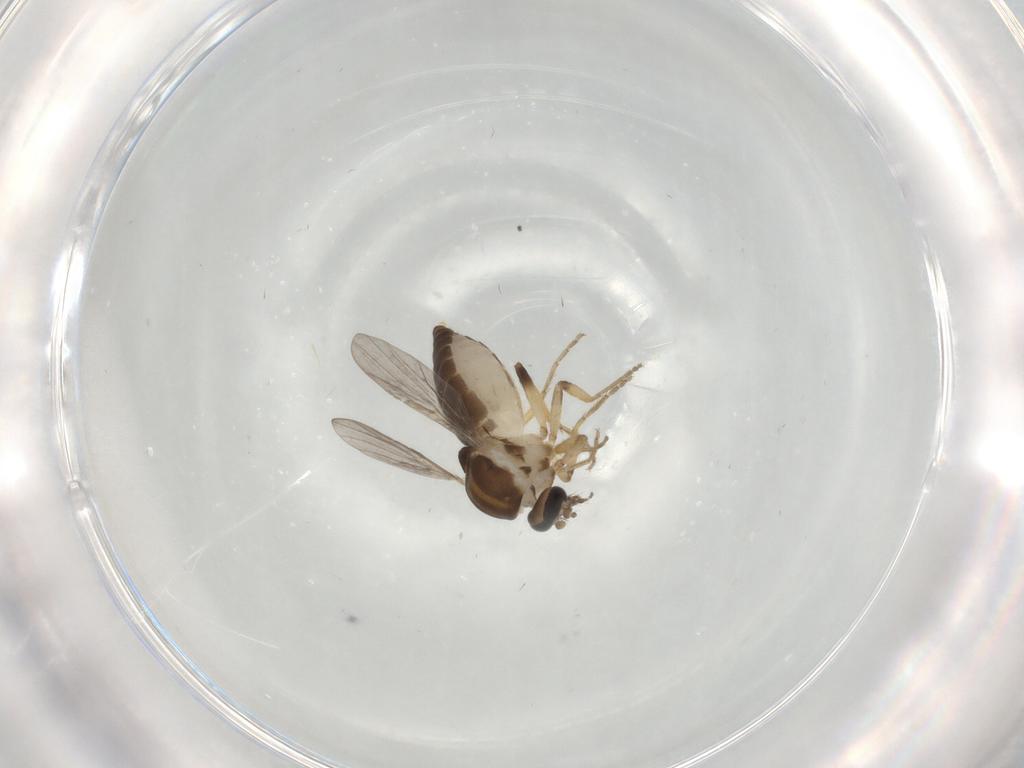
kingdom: Animalia
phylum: Arthropoda
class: Insecta
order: Diptera
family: Ceratopogonidae
